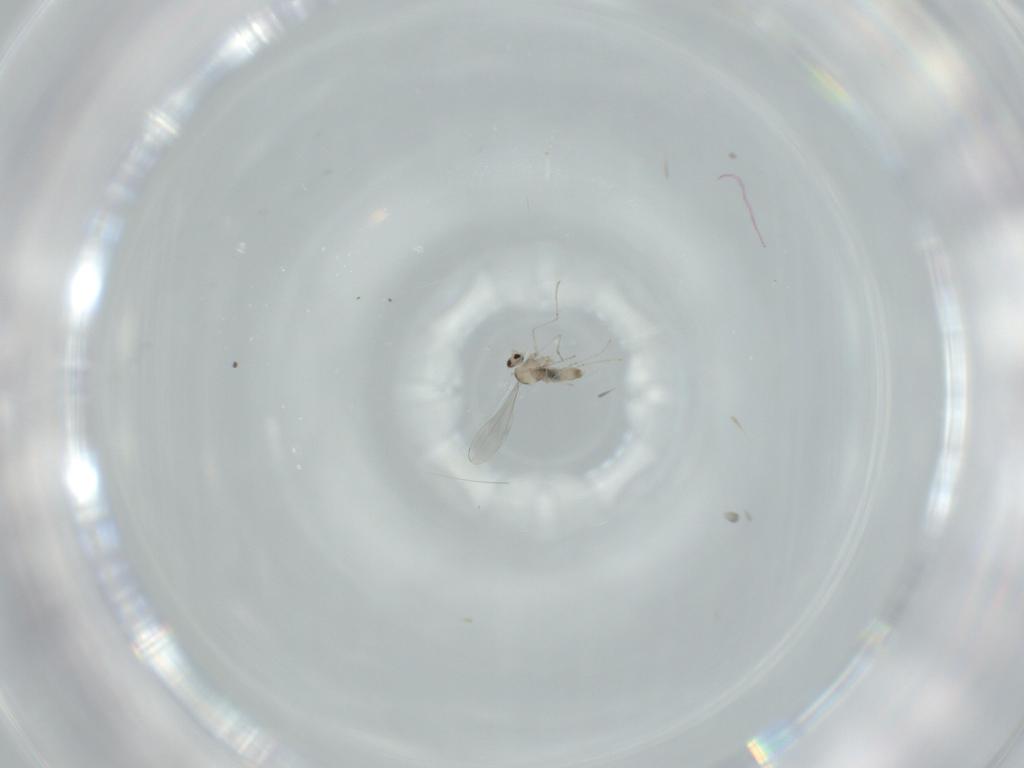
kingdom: Animalia
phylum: Arthropoda
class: Insecta
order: Diptera
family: Cecidomyiidae
